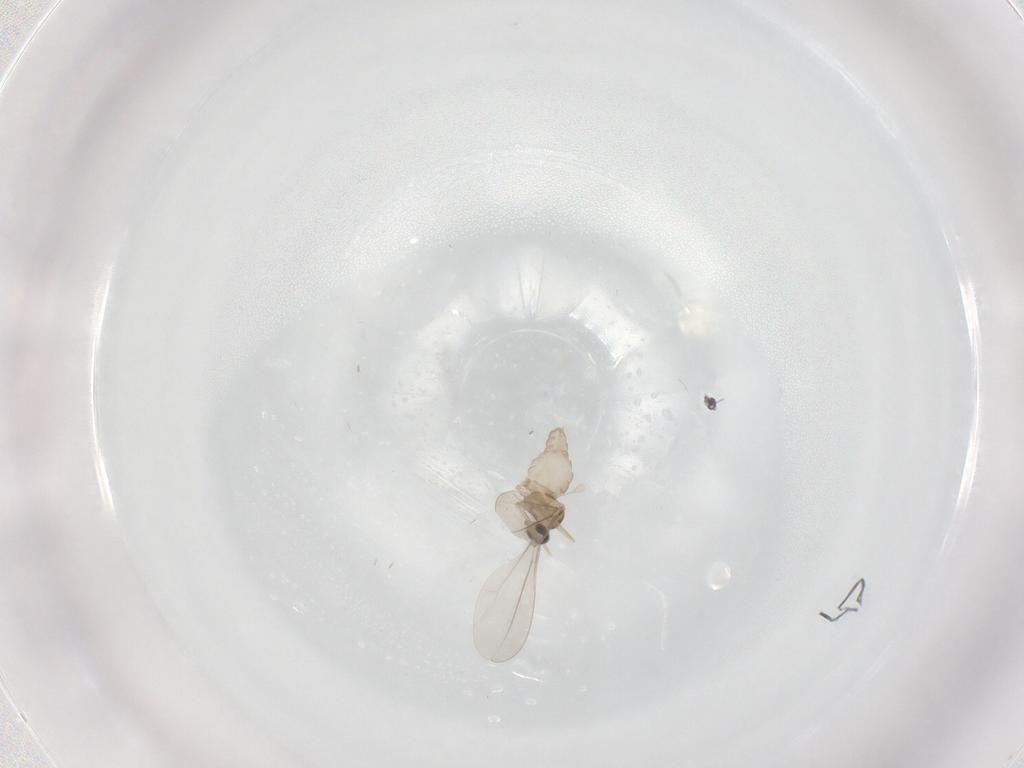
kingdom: Animalia
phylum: Arthropoda
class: Insecta
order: Diptera
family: Cecidomyiidae
